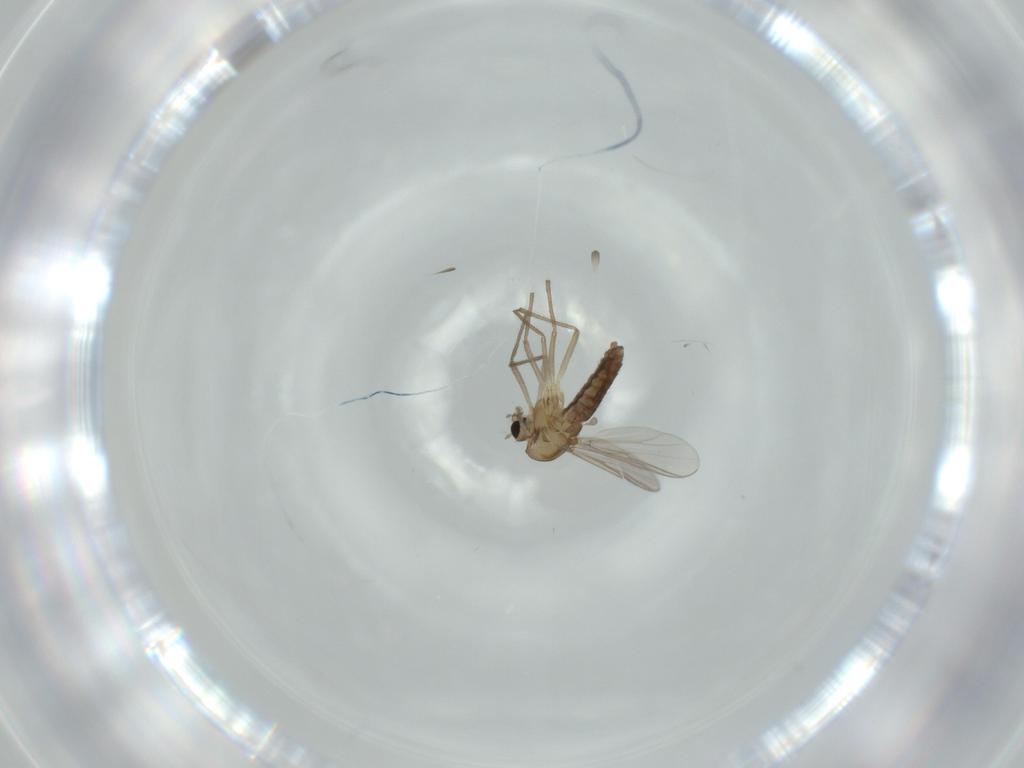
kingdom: Animalia
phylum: Arthropoda
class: Insecta
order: Diptera
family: Chironomidae
